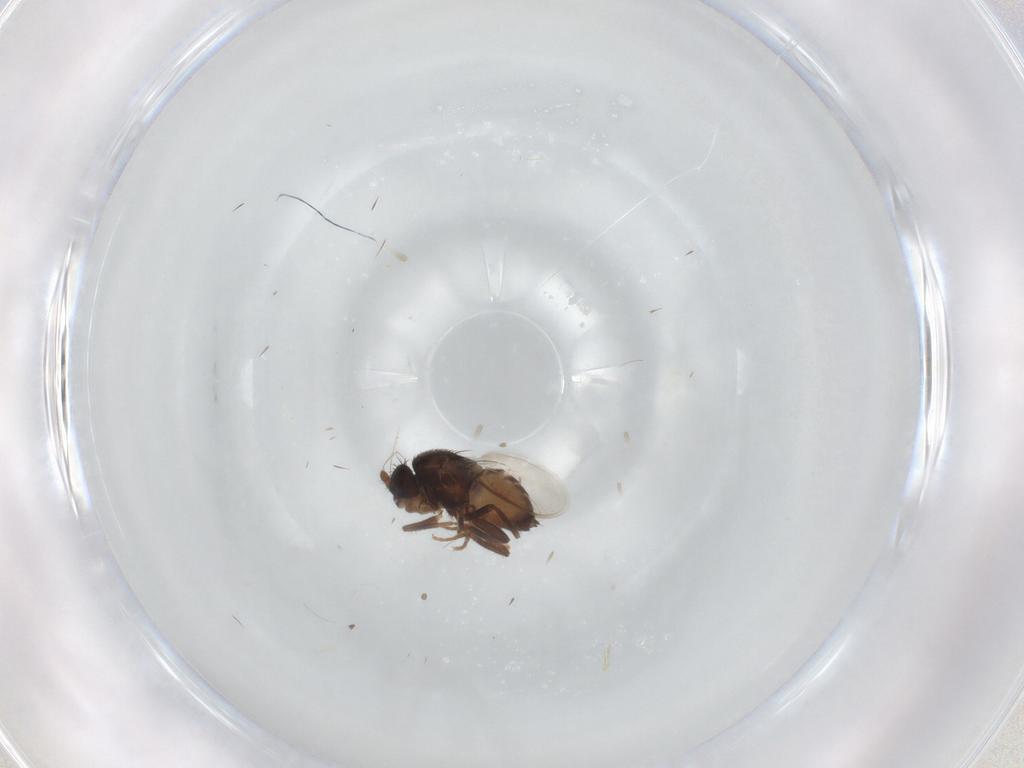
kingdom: Animalia
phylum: Arthropoda
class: Insecta
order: Diptera
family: Sphaeroceridae
